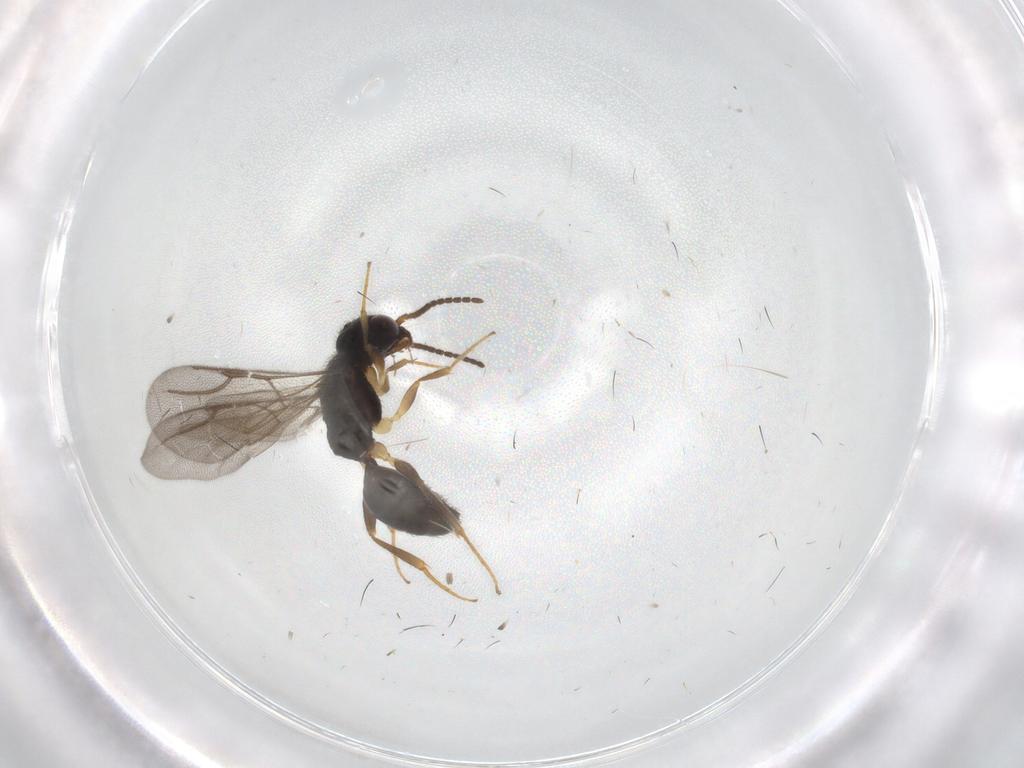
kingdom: Animalia
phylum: Arthropoda
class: Insecta
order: Hymenoptera
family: Bethylidae
